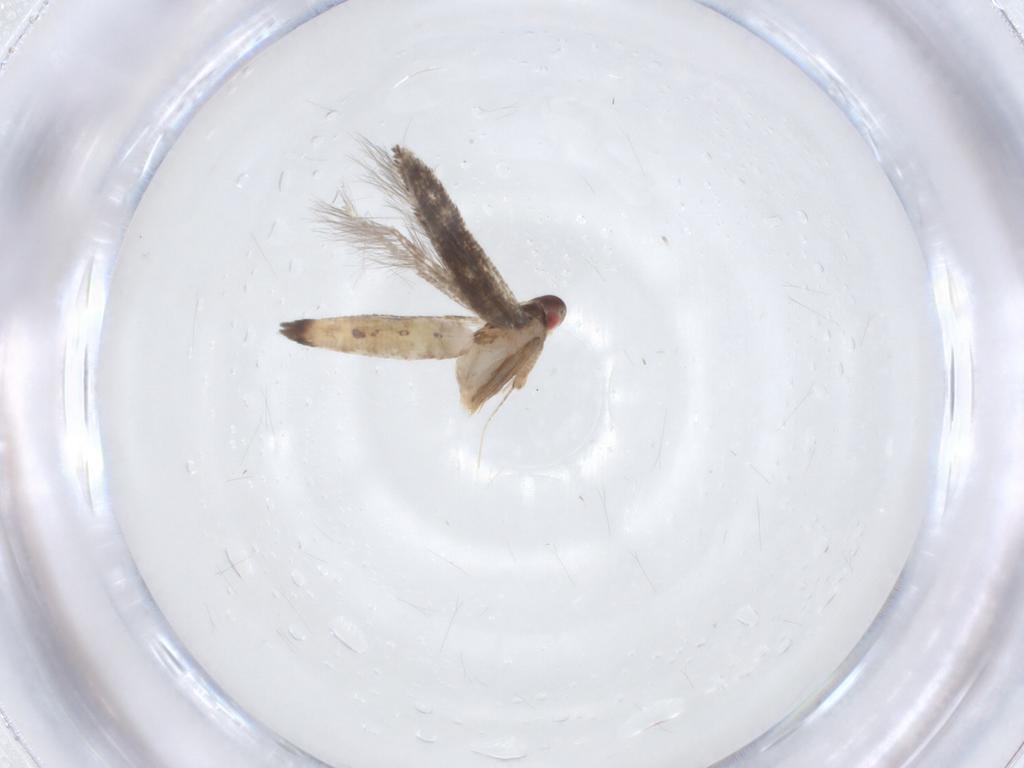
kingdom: Animalia
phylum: Arthropoda
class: Insecta
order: Lepidoptera
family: Cosmopterigidae
